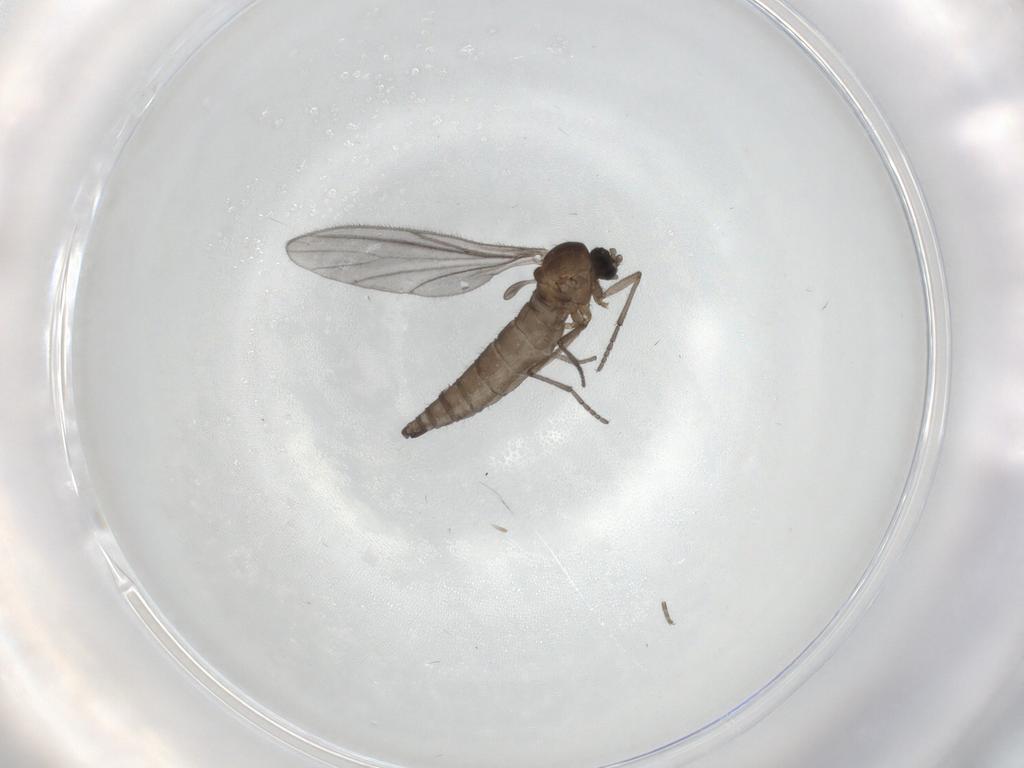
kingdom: Animalia
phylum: Arthropoda
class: Insecta
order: Diptera
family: Sciaridae
